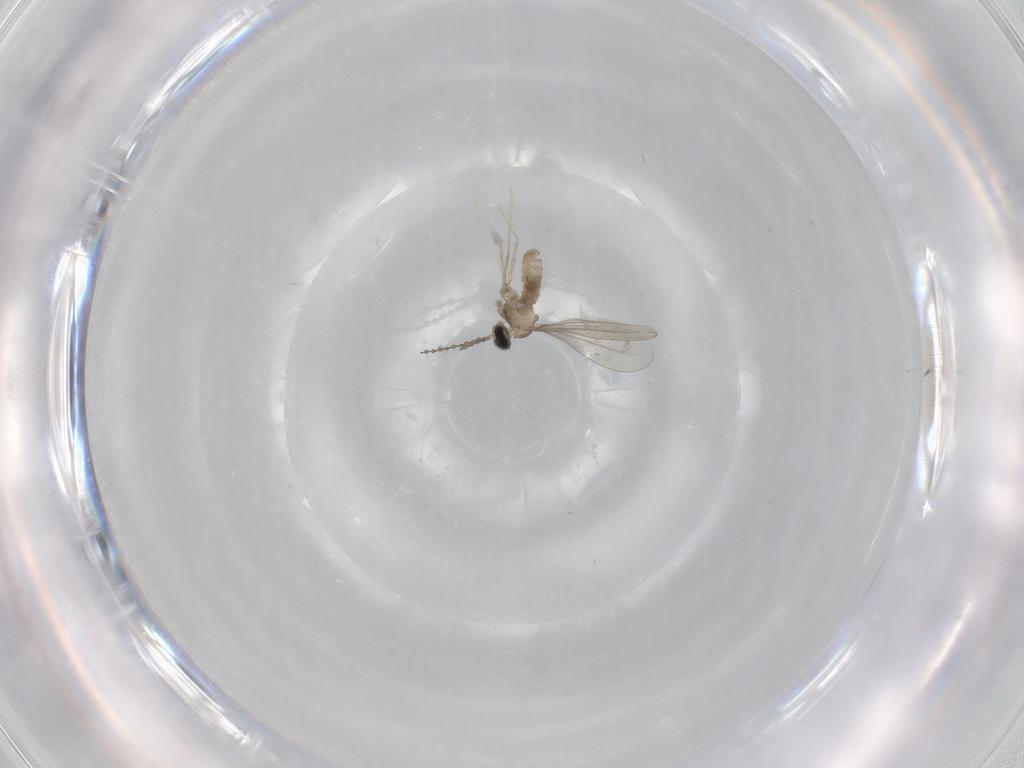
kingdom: Animalia
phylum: Arthropoda
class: Insecta
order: Diptera
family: Cecidomyiidae
